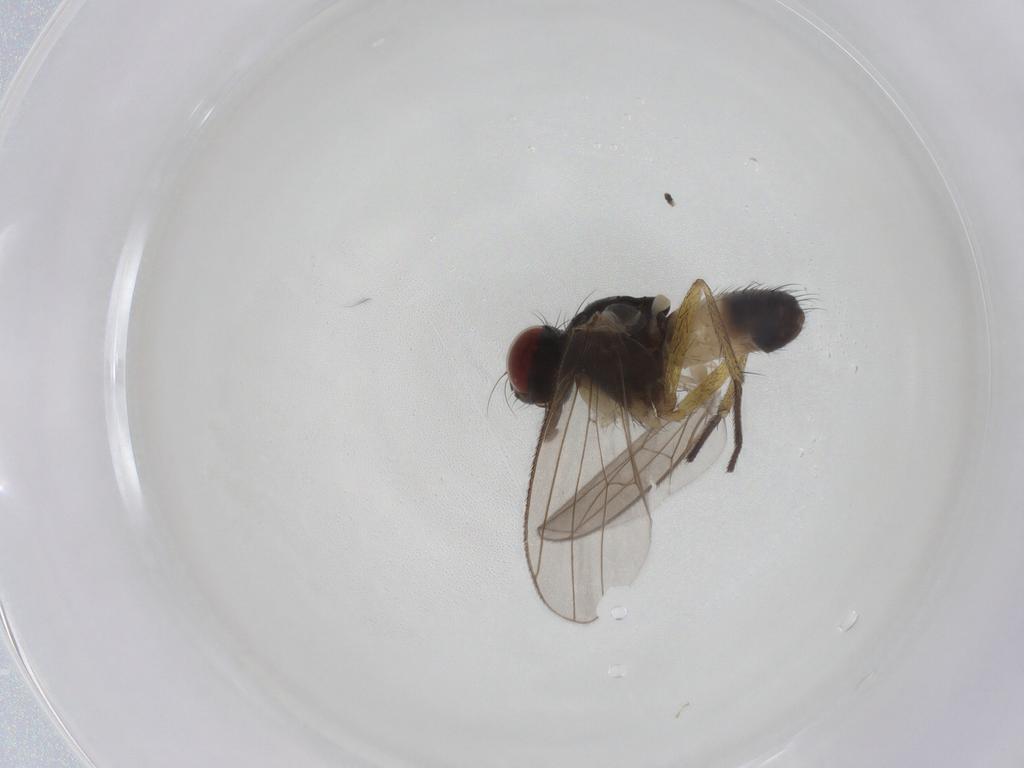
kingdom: Animalia
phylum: Arthropoda
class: Insecta
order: Diptera
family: Muscidae
